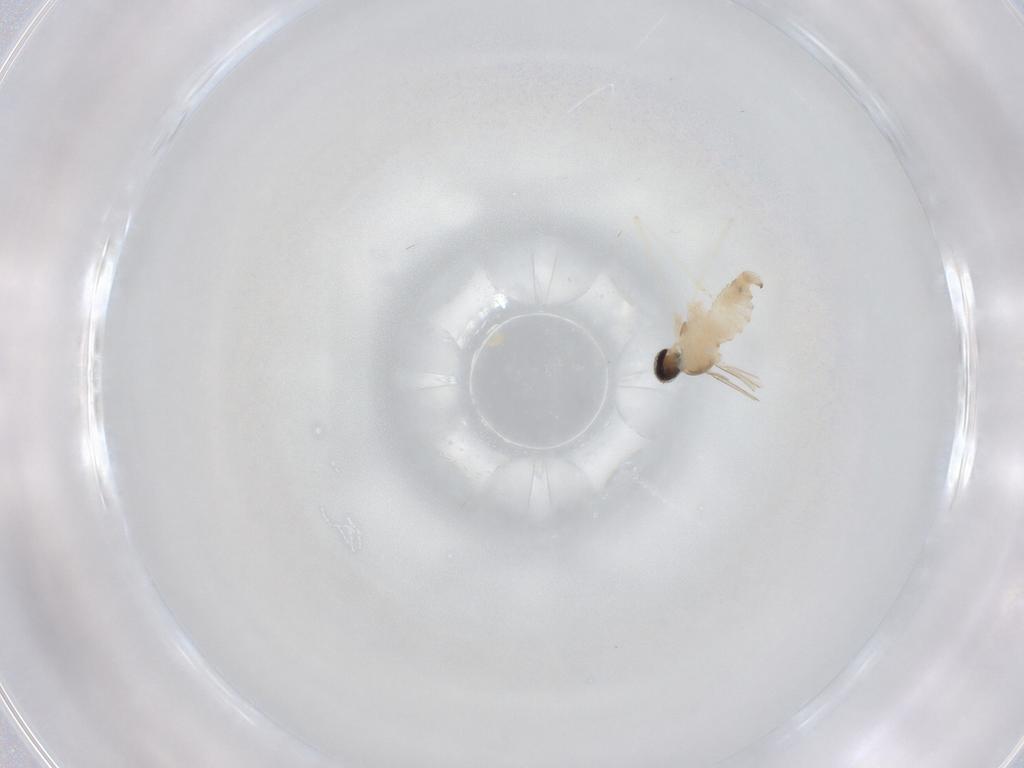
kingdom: Animalia
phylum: Arthropoda
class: Insecta
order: Diptera
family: Cecidomyiidae
